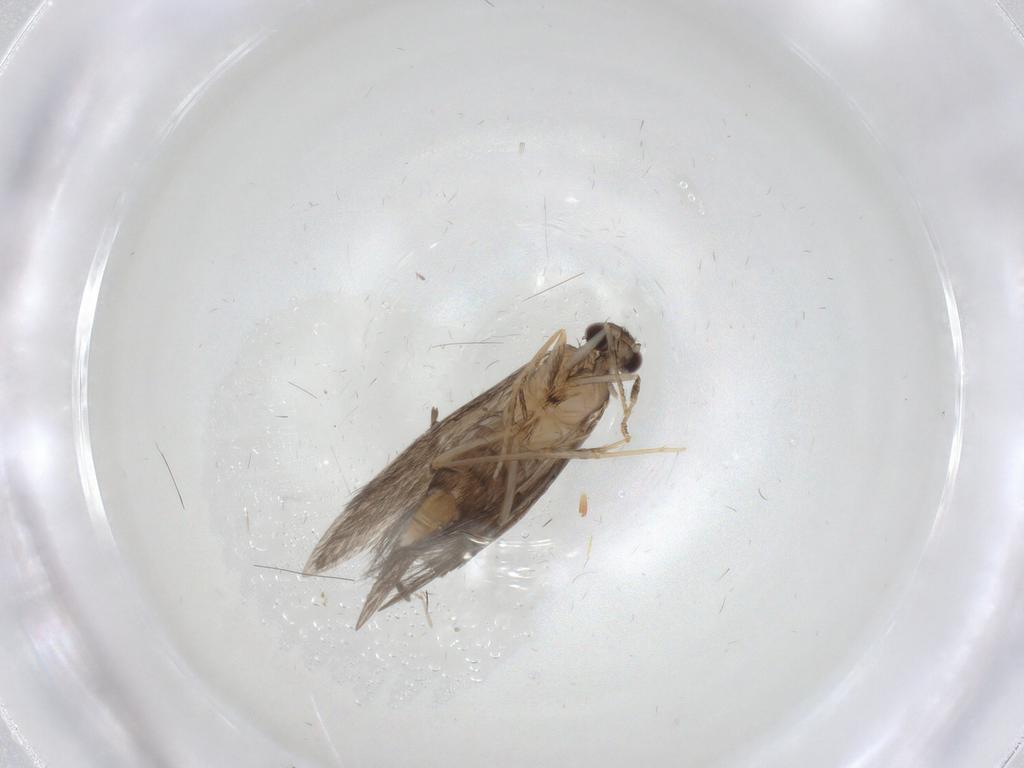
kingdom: Animalia
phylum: Arthropoda
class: Insecta
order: Trichoptera
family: Hydroptilidae
